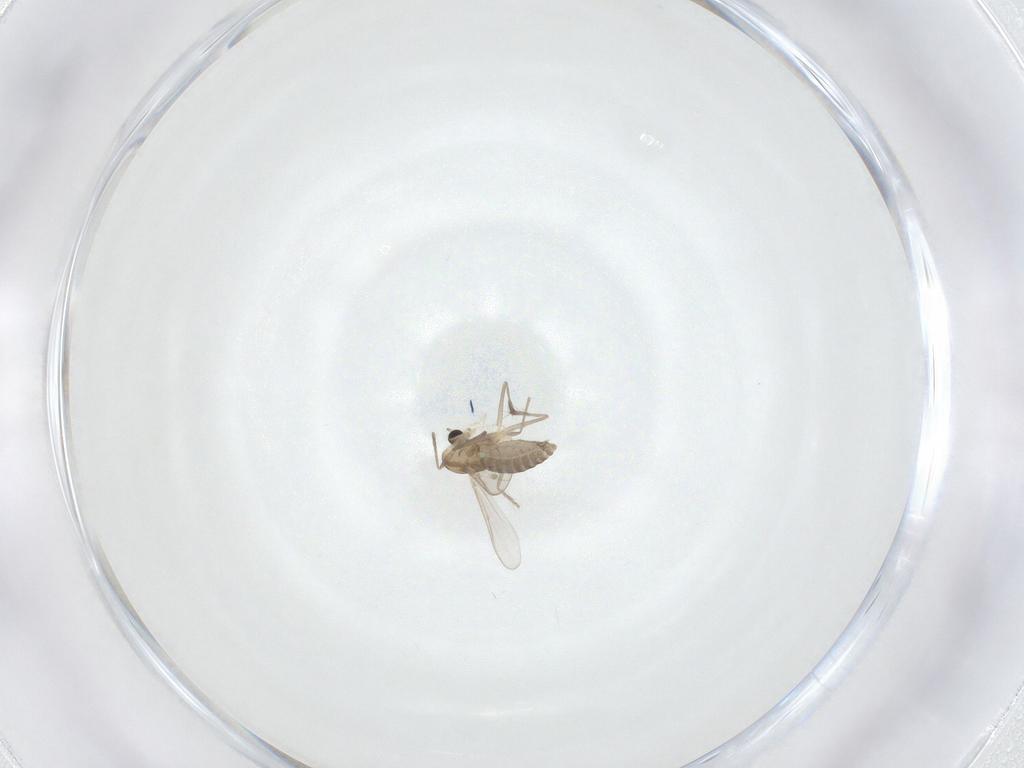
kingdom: Animalia
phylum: Arthropoda
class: Insecta
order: Diptera
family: Chironomidae
